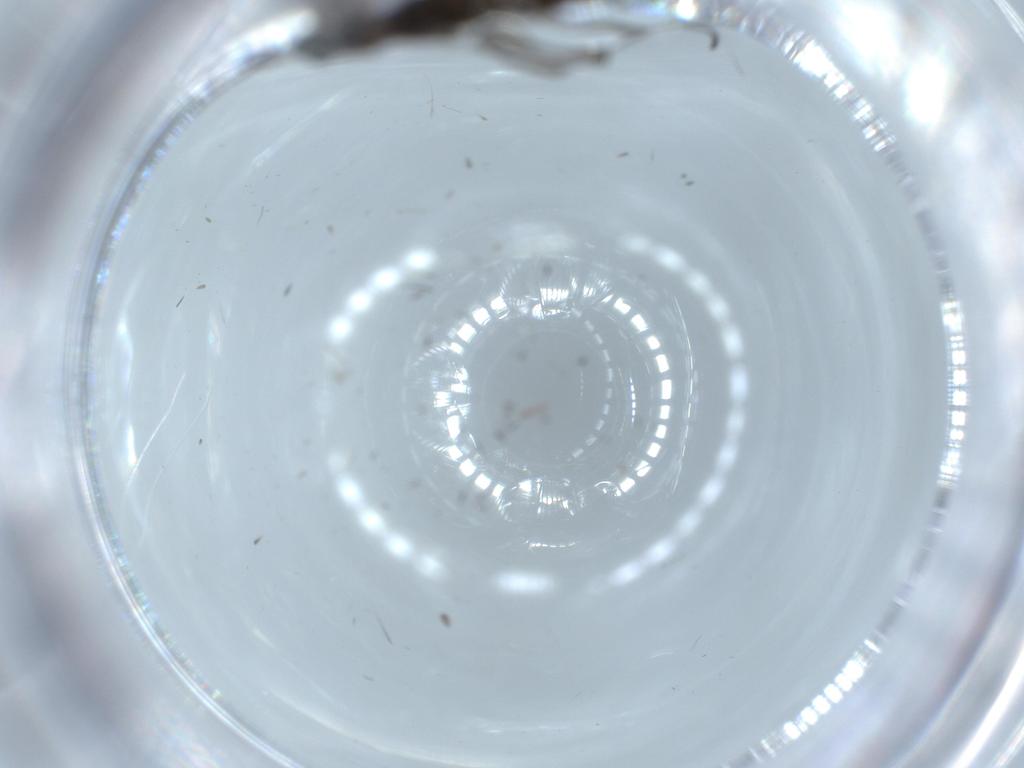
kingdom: Animalia
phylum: Arthropoda
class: Insecta
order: Diptera
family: Sciaridae
